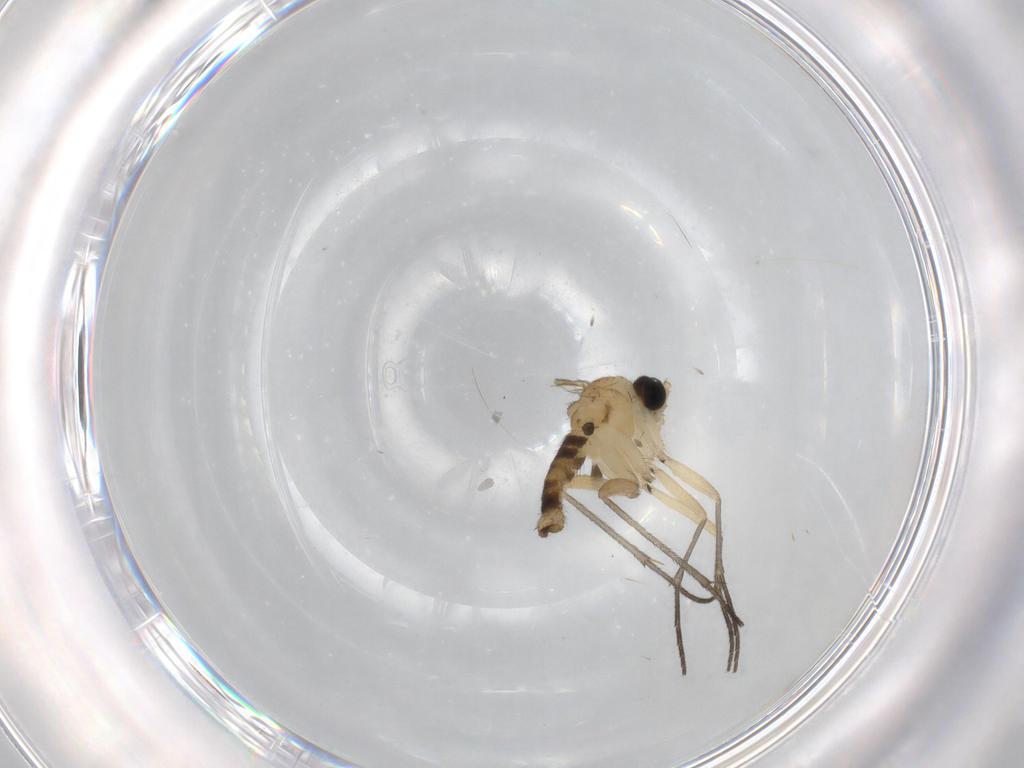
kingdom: Animalia
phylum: Arthropoda
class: Insecta
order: Diptera
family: Sciaridae
